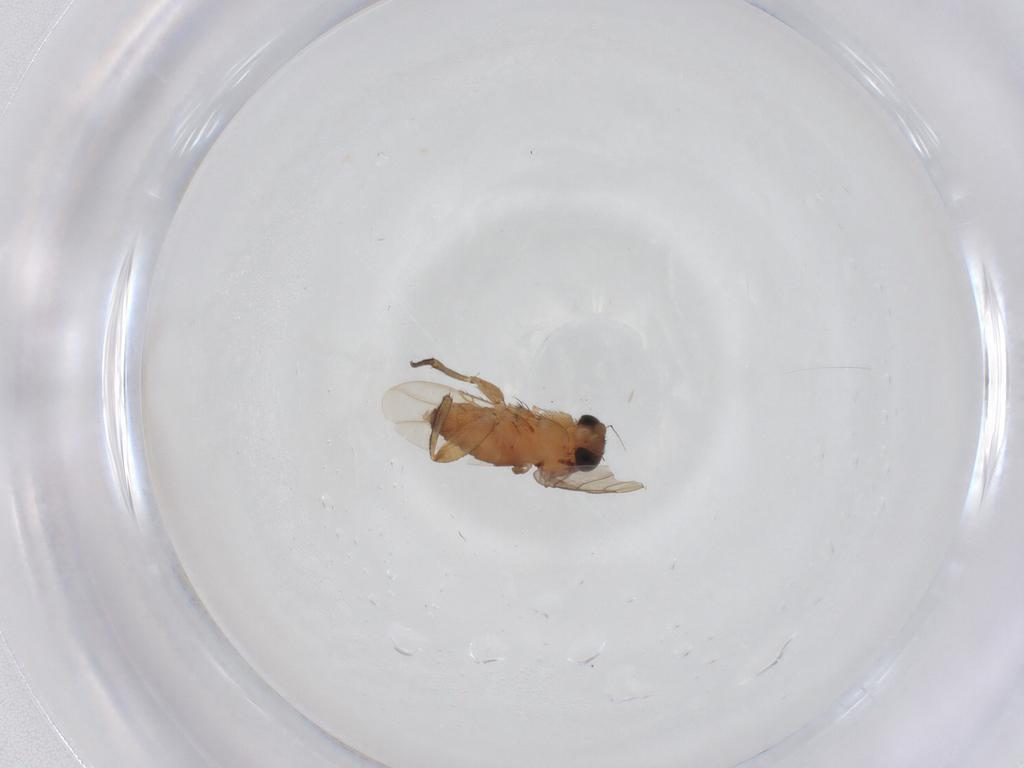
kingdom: Animalia
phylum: Arthropoda
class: Insecta
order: Diptera
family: Phoridae
